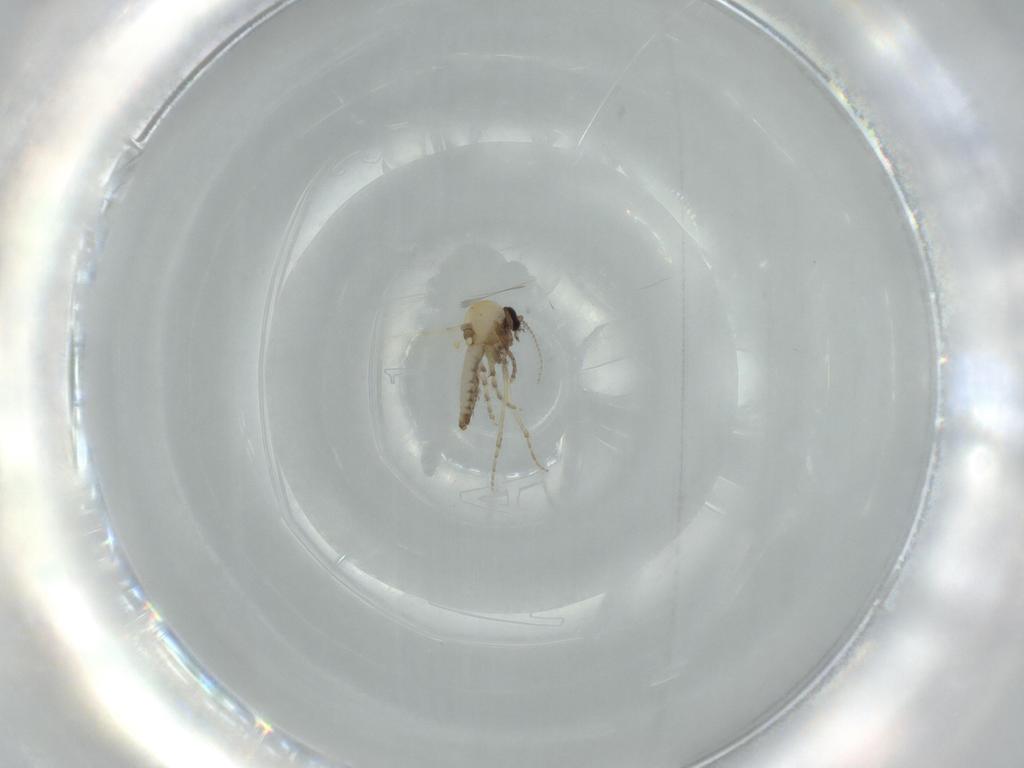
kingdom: Animalia
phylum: Arthropoda
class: Insecta
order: Diptera
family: Ceratopogonidae
